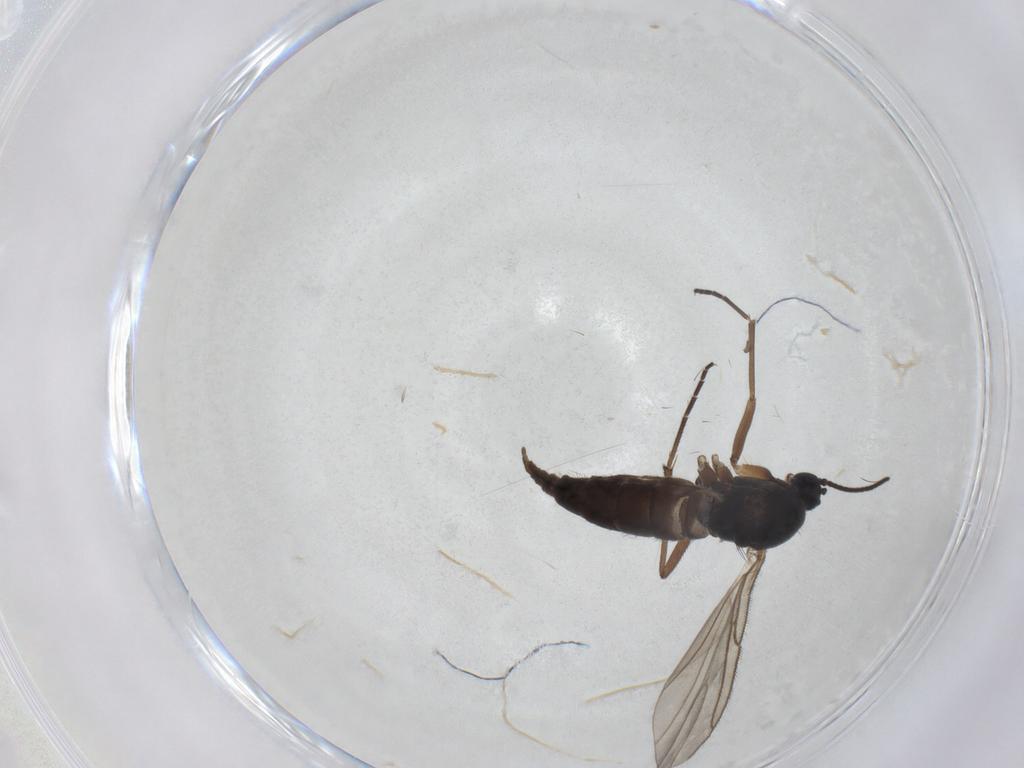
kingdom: Animalia
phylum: Arthropoda
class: Insecta
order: Diptera
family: Sciaridae
